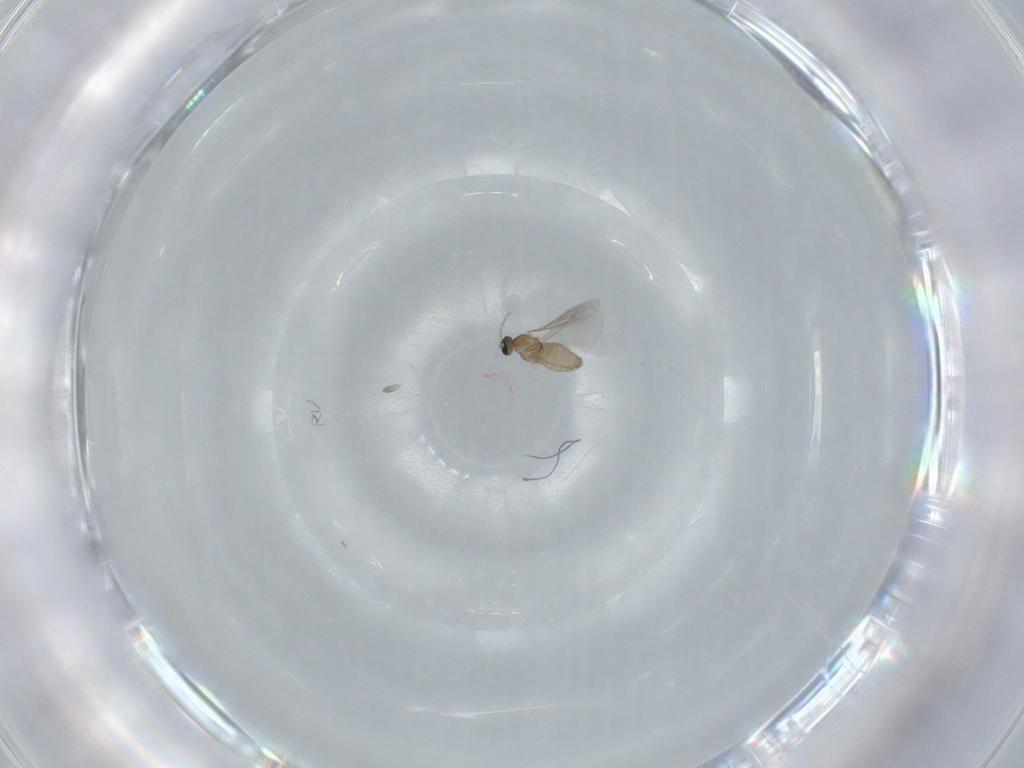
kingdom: Animalia
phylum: Arthropoda
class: Insecta
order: Diptera
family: Cecidomyiidae
